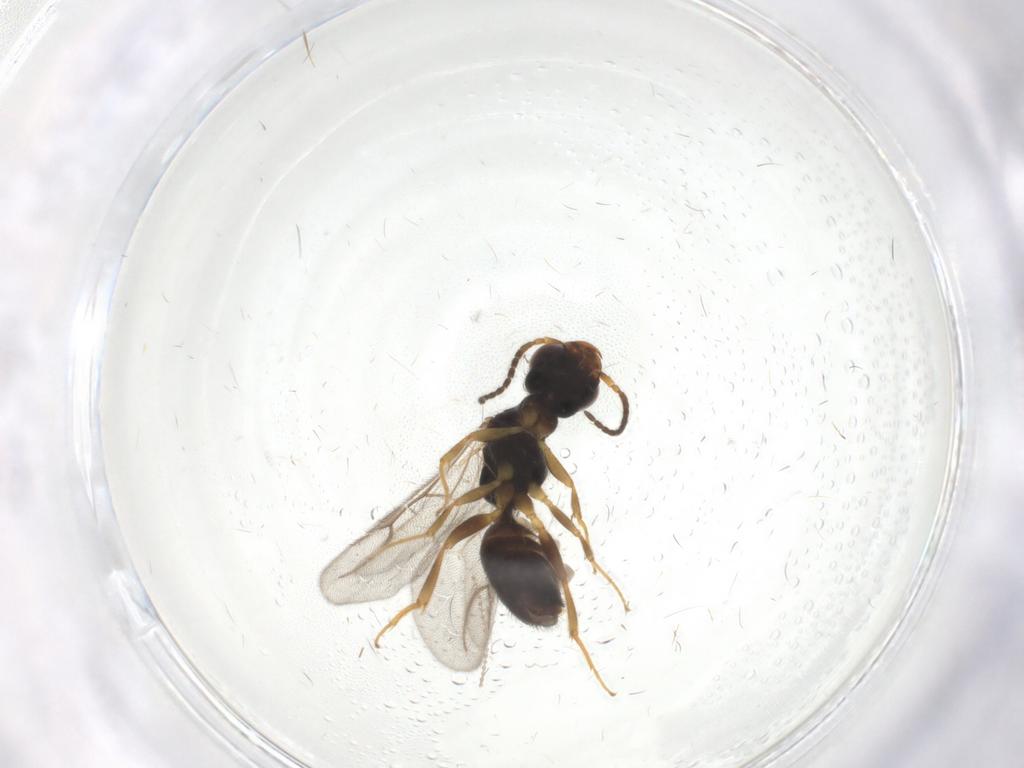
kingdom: Animalia
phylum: Arthropoda
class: Insecta
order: Hymenoptera
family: Bethylidae
